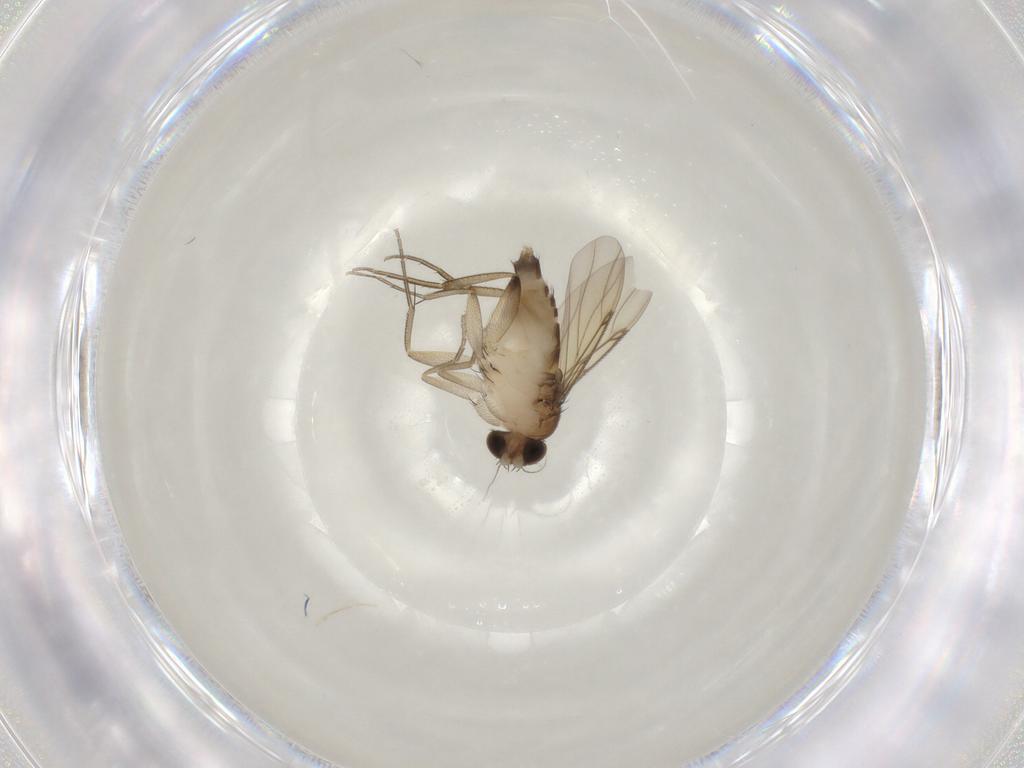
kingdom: Animalia
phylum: Arthropoda
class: Insecta
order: Diptera
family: Phoridae
